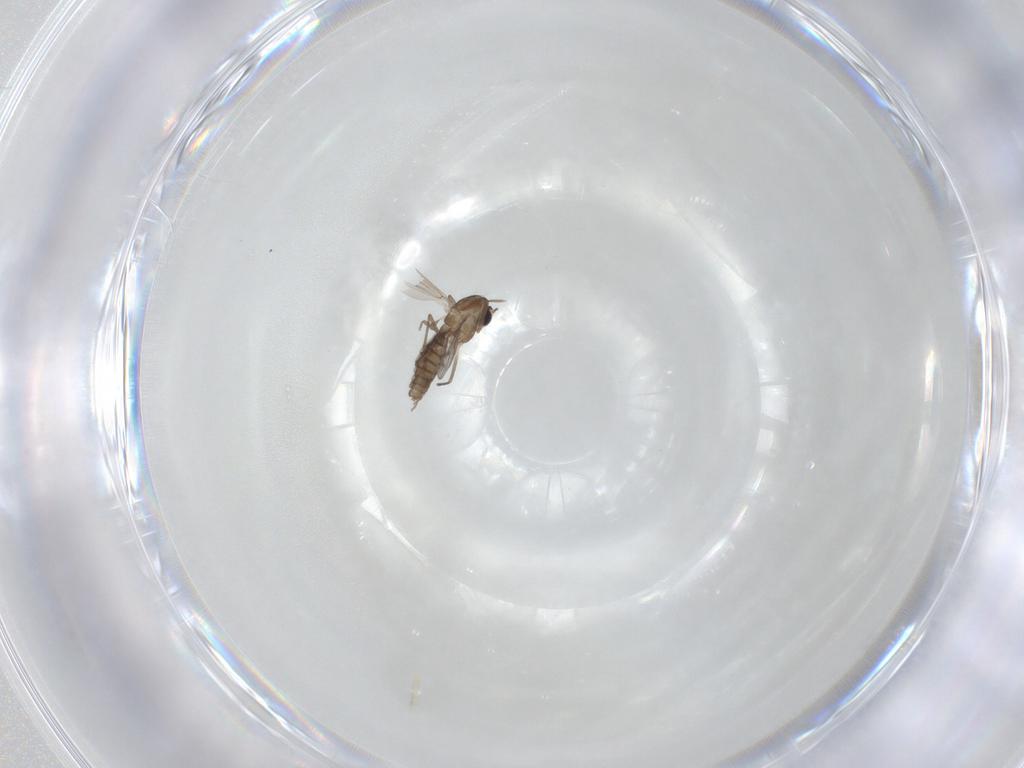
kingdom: Animalia
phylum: Arthropoda
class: Insecta
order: Diptera
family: Chironomidae
